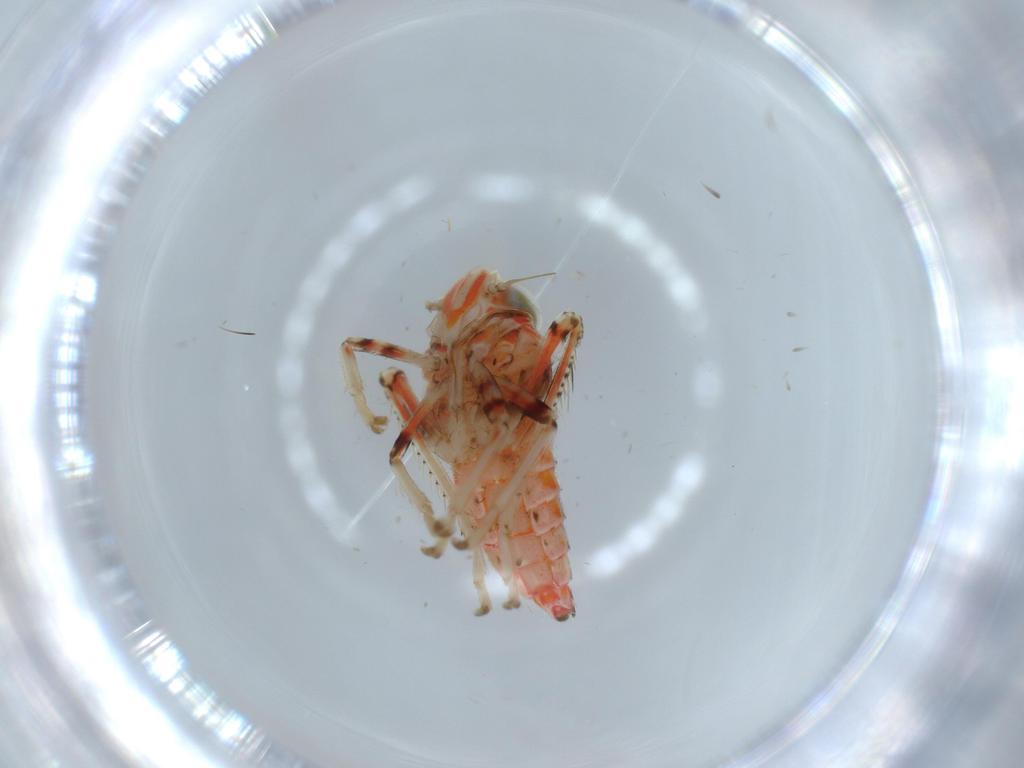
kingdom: Animalia
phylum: Arthropoda
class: Insecta
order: Hemiptera
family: Cicadellidae
